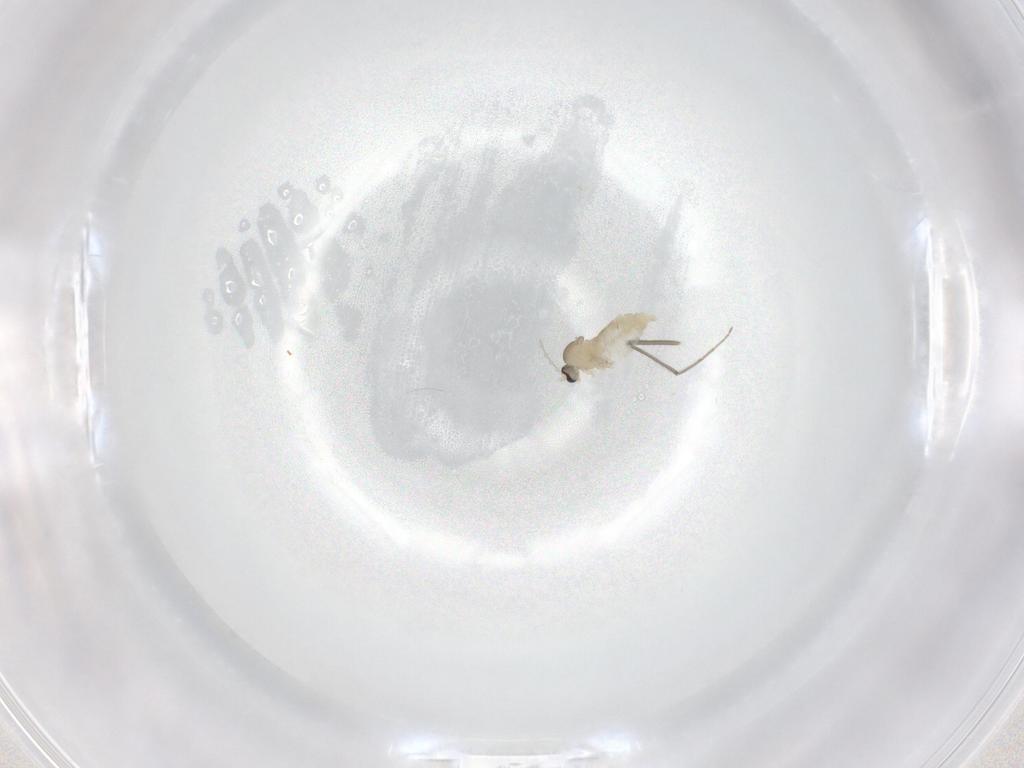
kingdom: Animalia
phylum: Arthropoda
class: Insecta
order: Diptera
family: Cecidomyiidae
